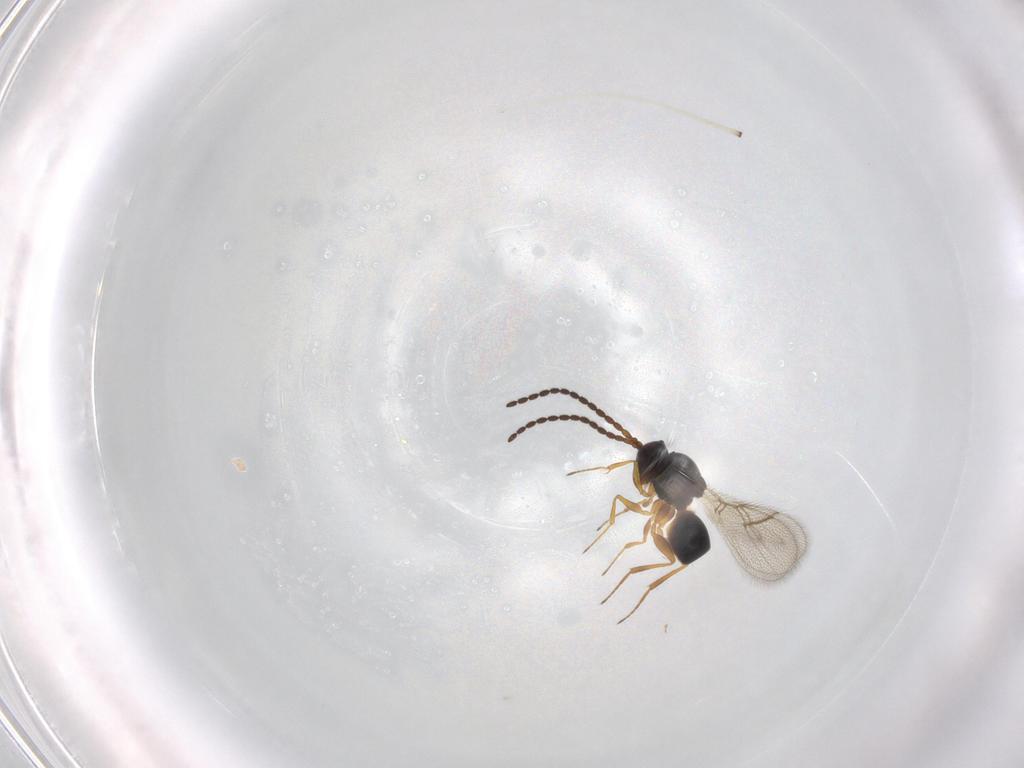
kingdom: Animalia
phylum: Arthropoda
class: Insecta
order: Hymenoptera
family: Figitidae
